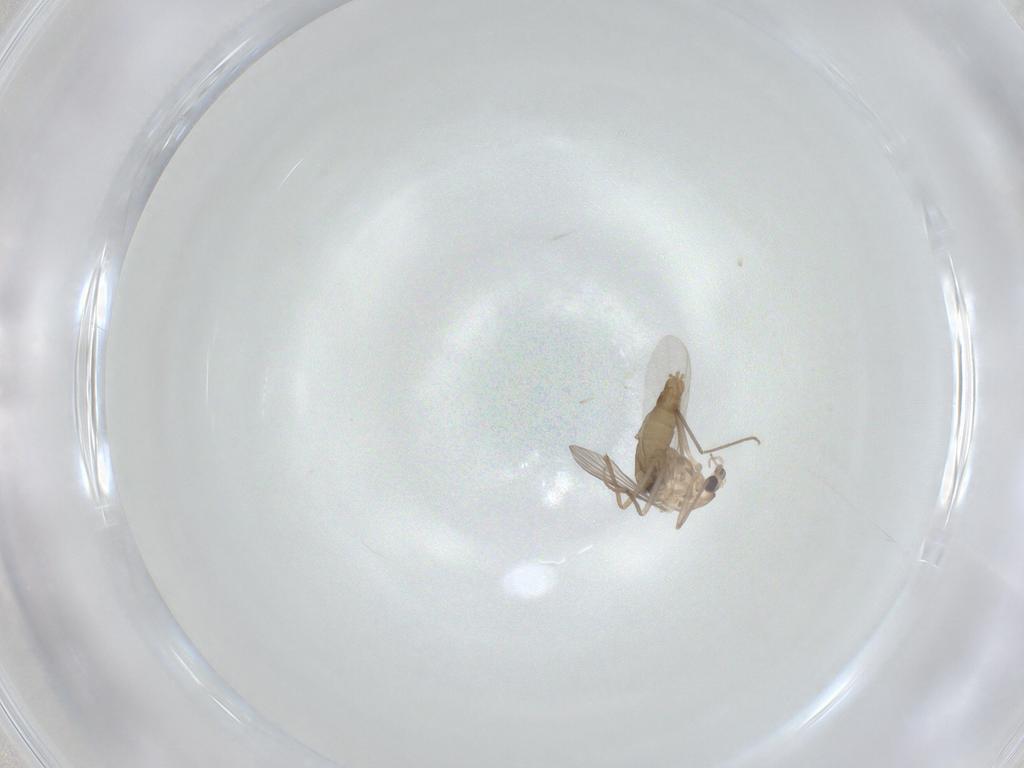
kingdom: Animalia
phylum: Arthropoda
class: Insecta
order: Diptera
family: Chironomidae
